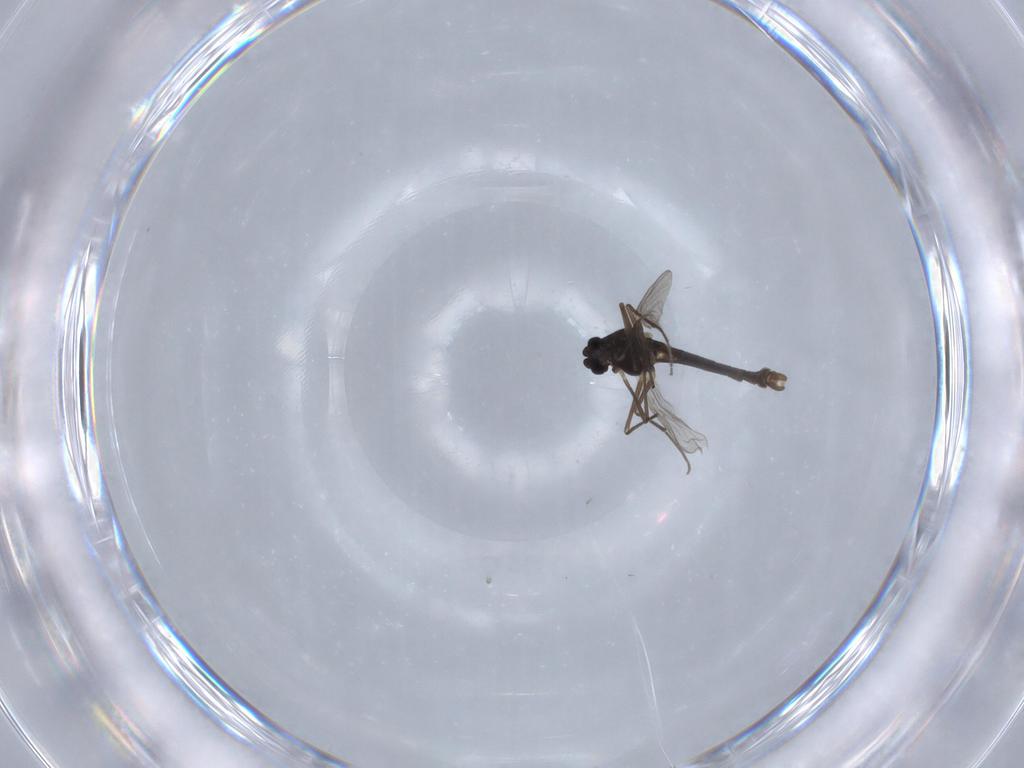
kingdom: Animalia
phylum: Arthropoda
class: Insecta
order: Diptera
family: Chironomidae
